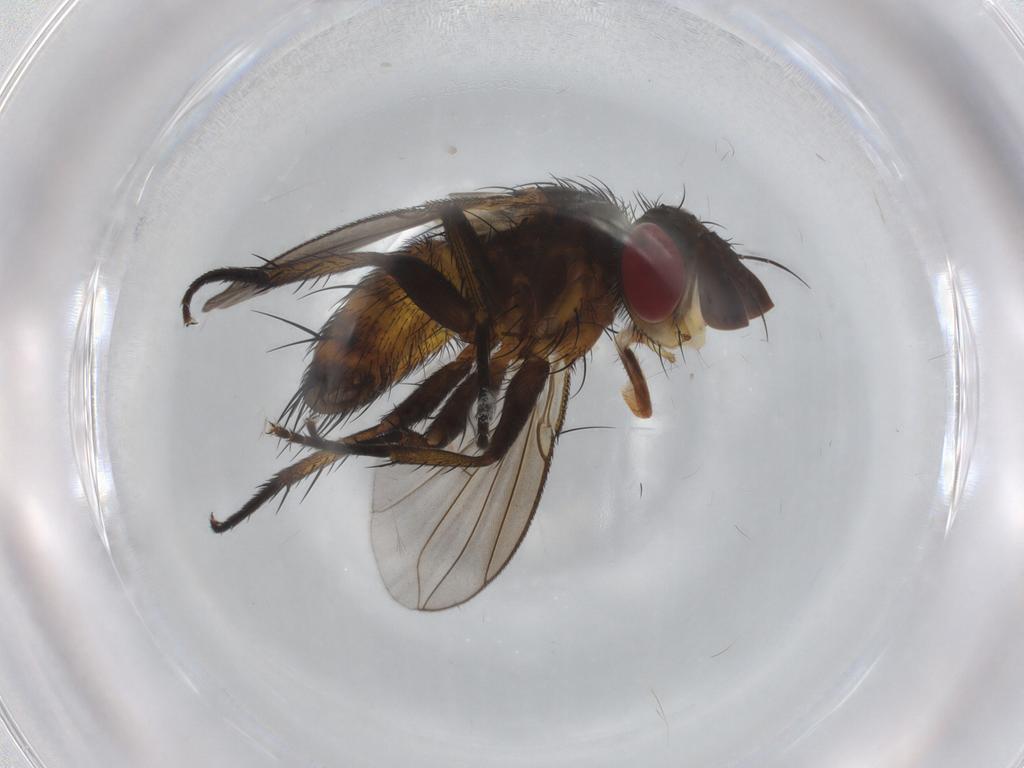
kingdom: Animalia
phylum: Arthropoda
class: Insecta
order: Diptera
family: Tachinidae
